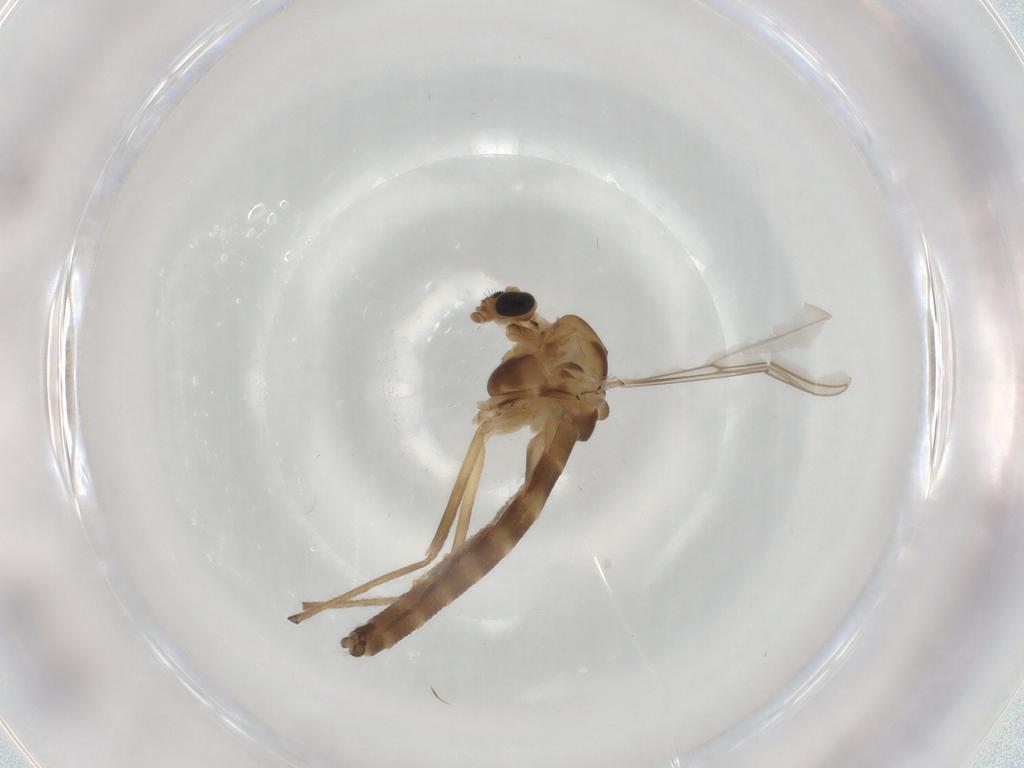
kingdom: Animalia
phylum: Arthropoda
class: Insecta
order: Diptera
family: Chironomidae
